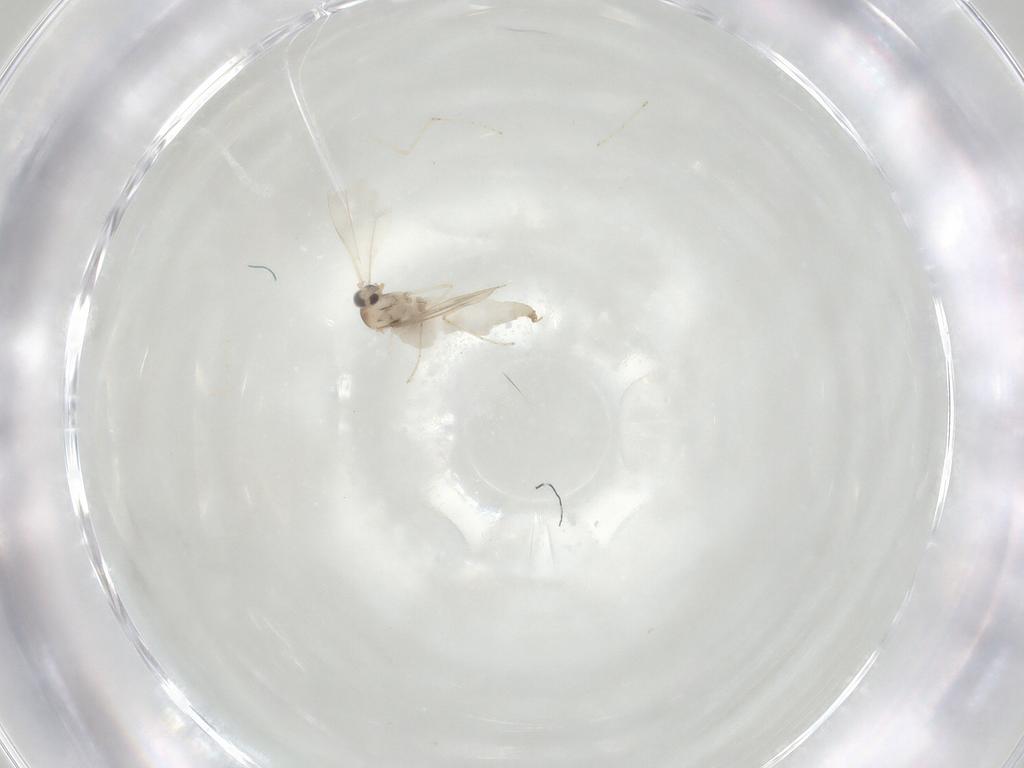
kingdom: Animalia
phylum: Arthropoda
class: Insecta
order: Diptera
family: Cecidomyiidae
